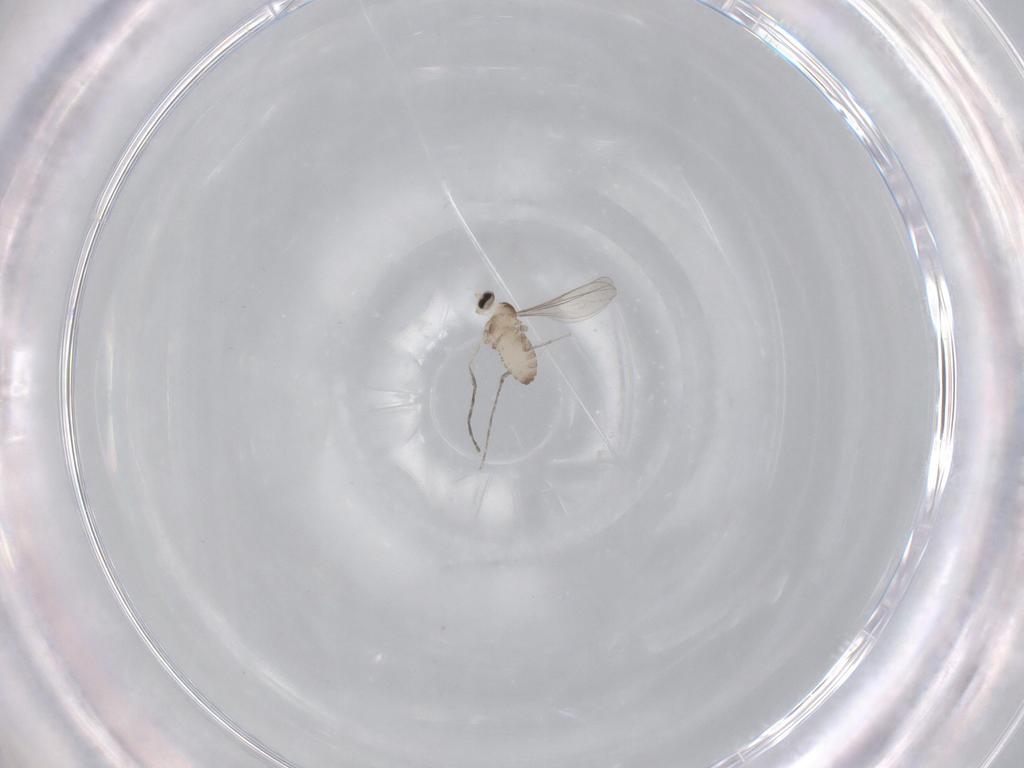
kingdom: Animalia
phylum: Arthropoda
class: Insecta
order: Diptera
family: Cecidomyiidae
